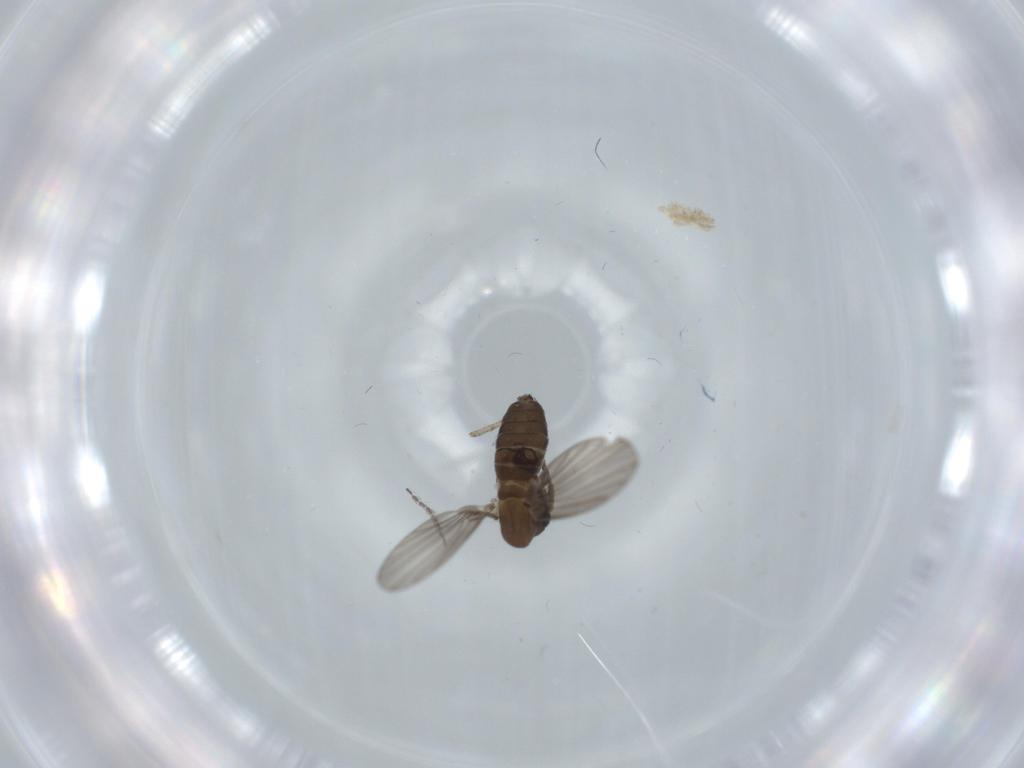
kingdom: Animalia
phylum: Arthropoda
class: Insecta
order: Diptera
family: Psychodidae
